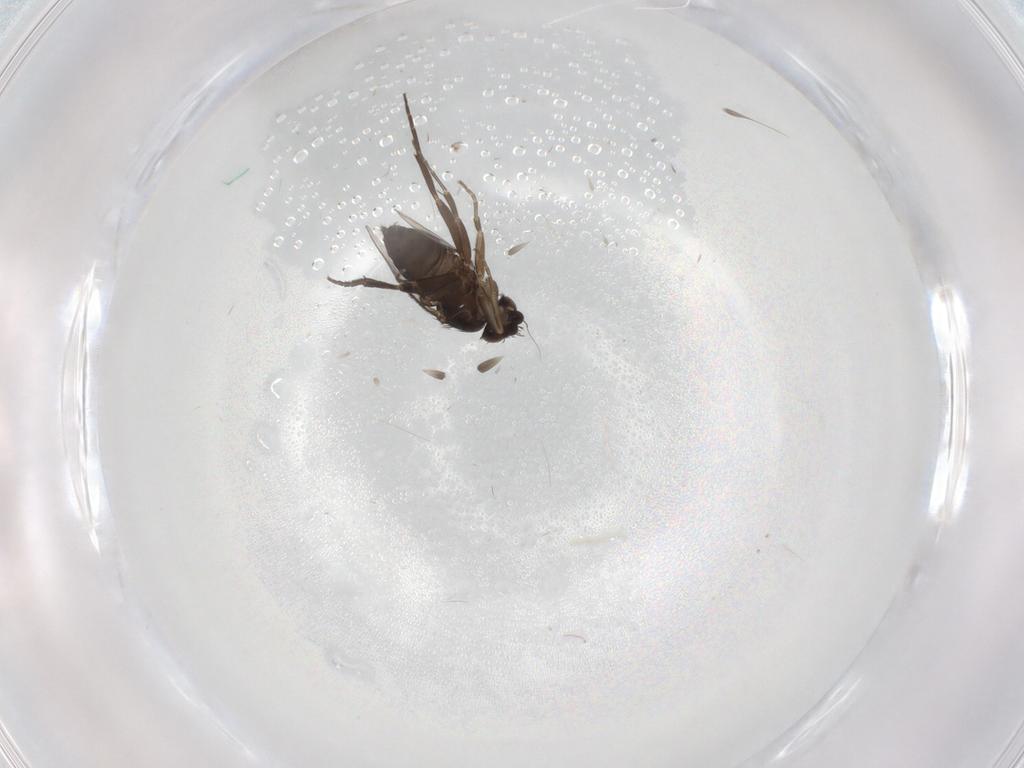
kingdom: Animalia
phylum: Arthropoda
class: Insecta
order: Diptera
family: Phoridae
